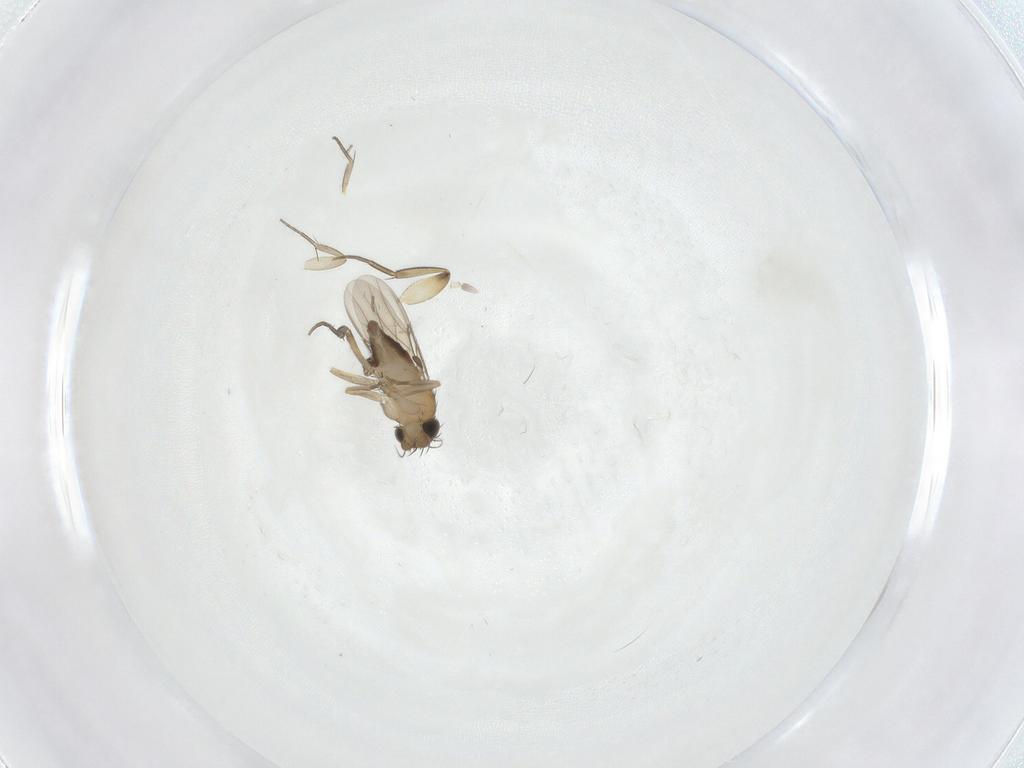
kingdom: Animalia
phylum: Arthropoda
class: Insecta
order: Diptera
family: Phoridae
